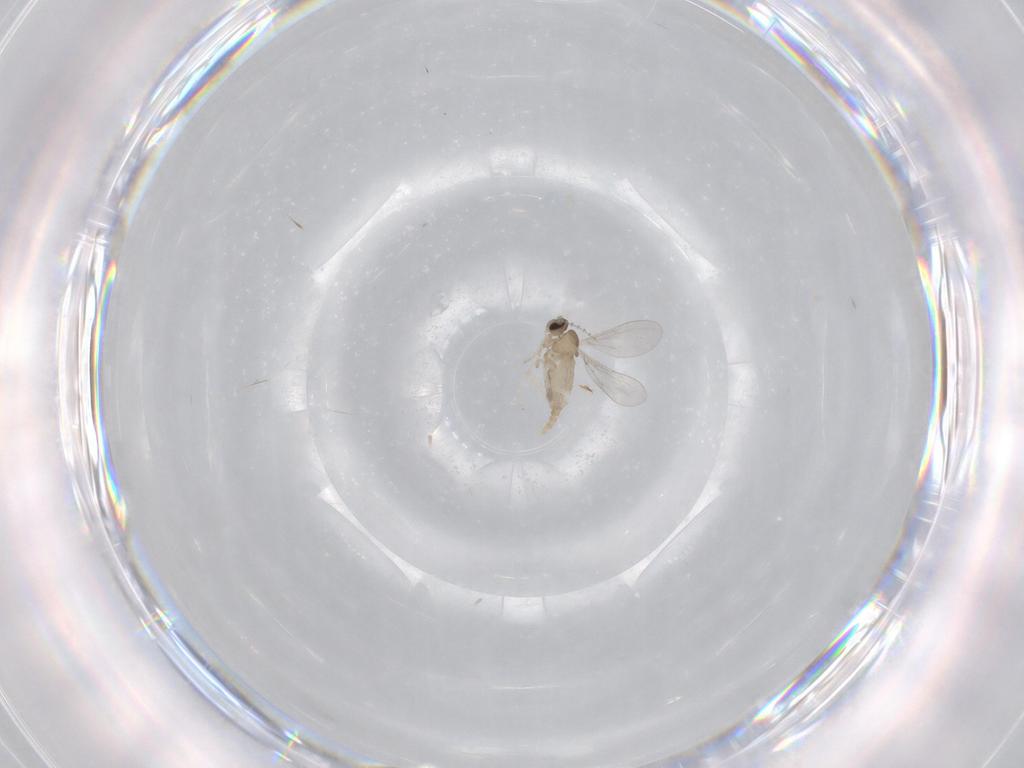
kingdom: Animalia
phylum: Arthropoda
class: Insecta
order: Diptera
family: Cecidomyiidae
